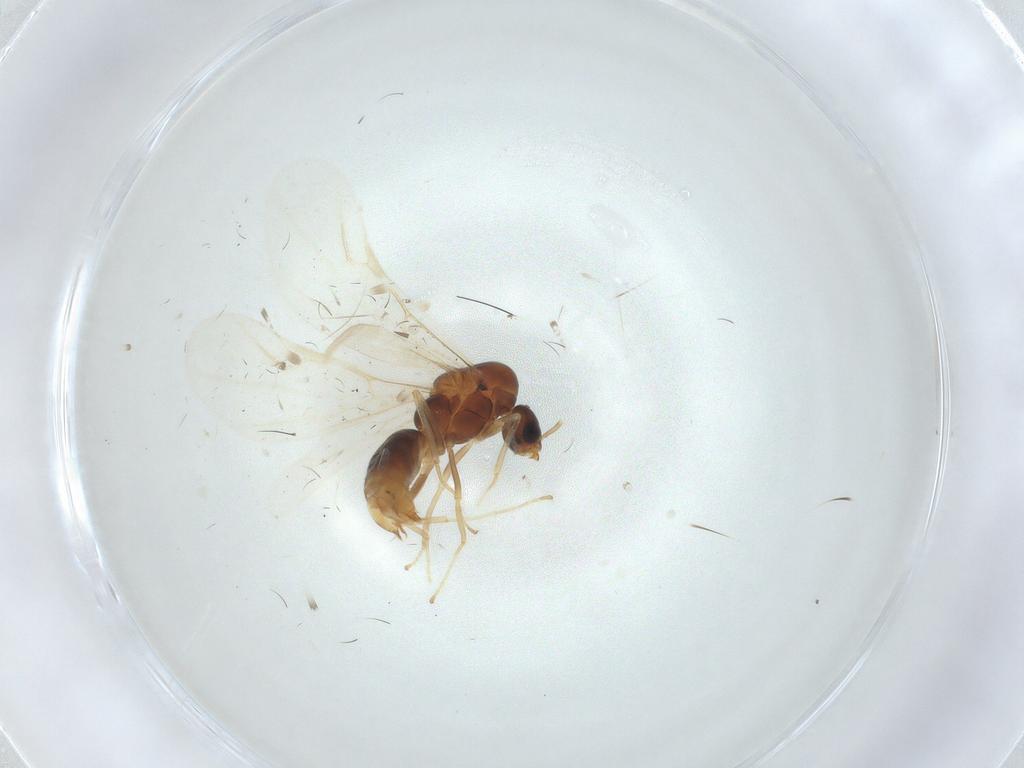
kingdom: Animalia
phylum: Arthropoda
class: Insecta
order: Hymenoptera
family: Formicidae
